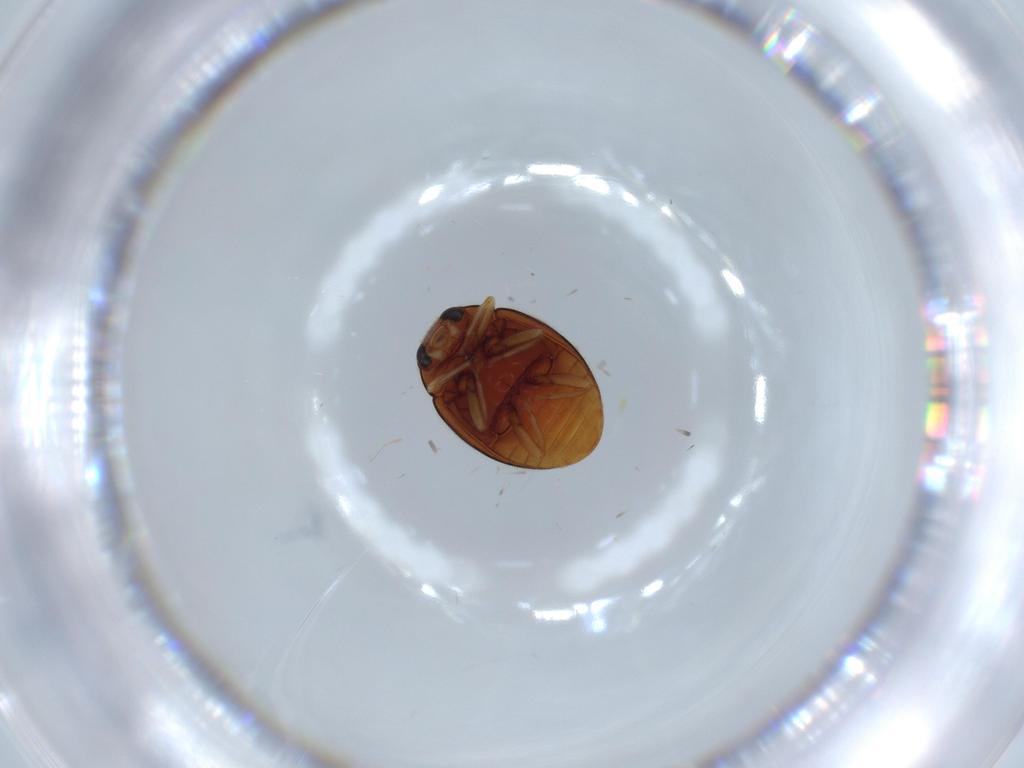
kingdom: Animalia
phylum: Arthropoda
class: Insecta
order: Coleoptera
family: Coccinellidae
